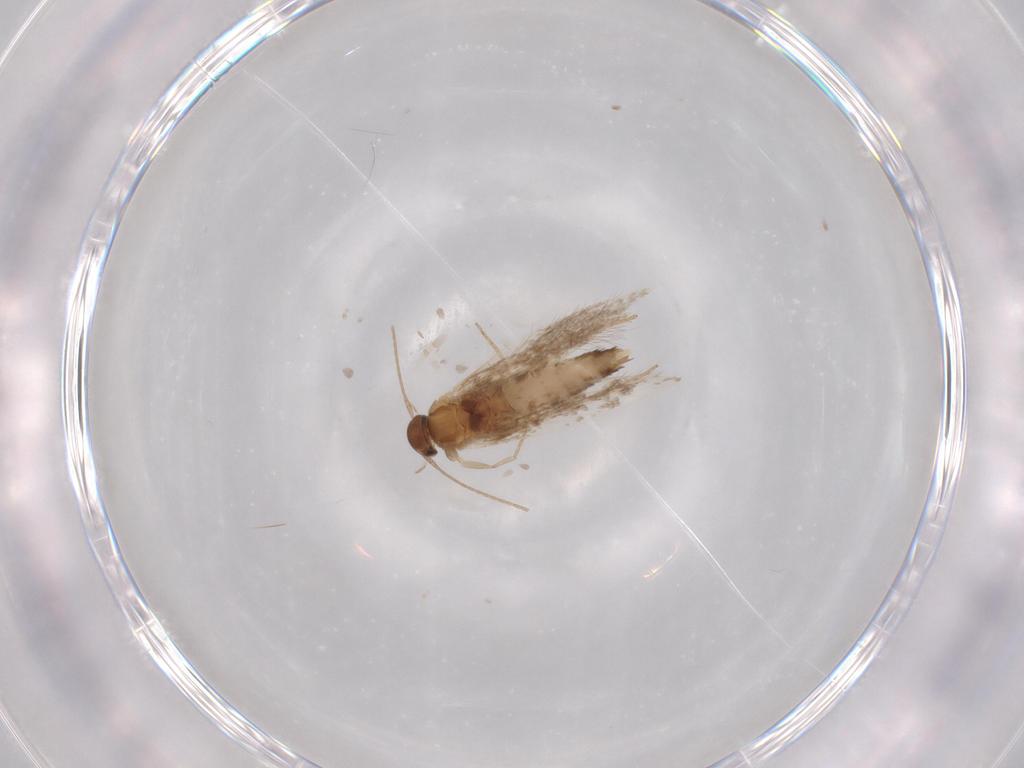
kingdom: Animalia
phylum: Arthropoda
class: Insecta
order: Lepidoptera
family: Elachistidae
